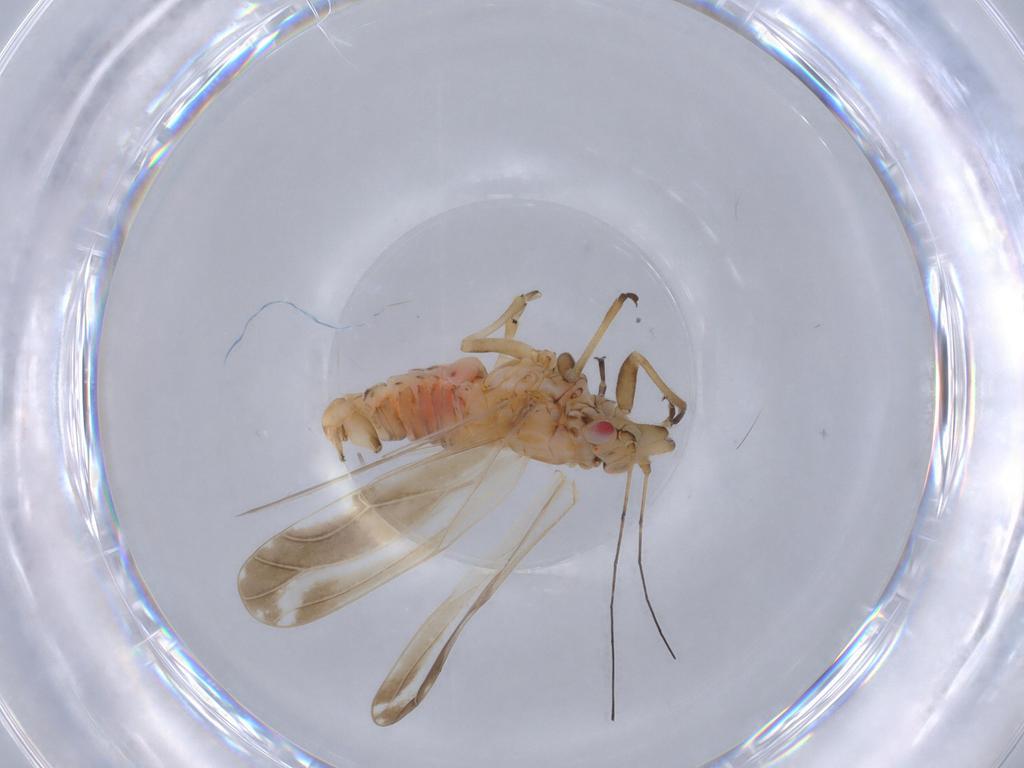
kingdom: Animalia
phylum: Arthropoda
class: Insecta
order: Hemiptera
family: Psyllidae
